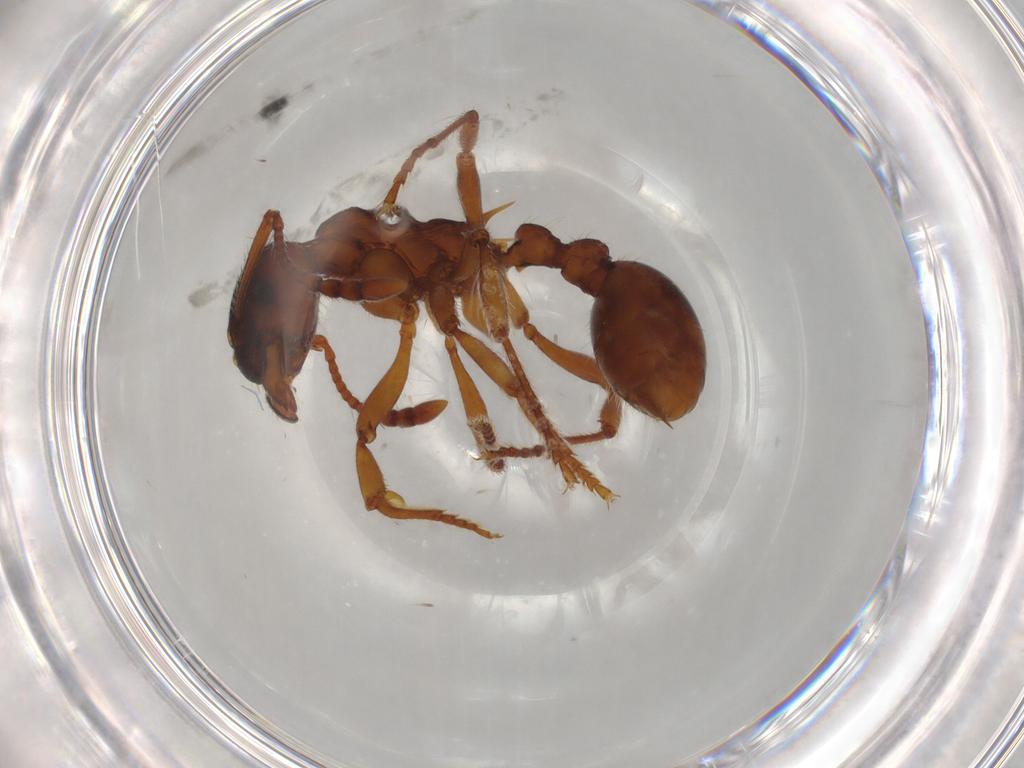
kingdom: Animalia
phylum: Arthropoda
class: Insecta
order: Hymenoptera
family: Formicidae
